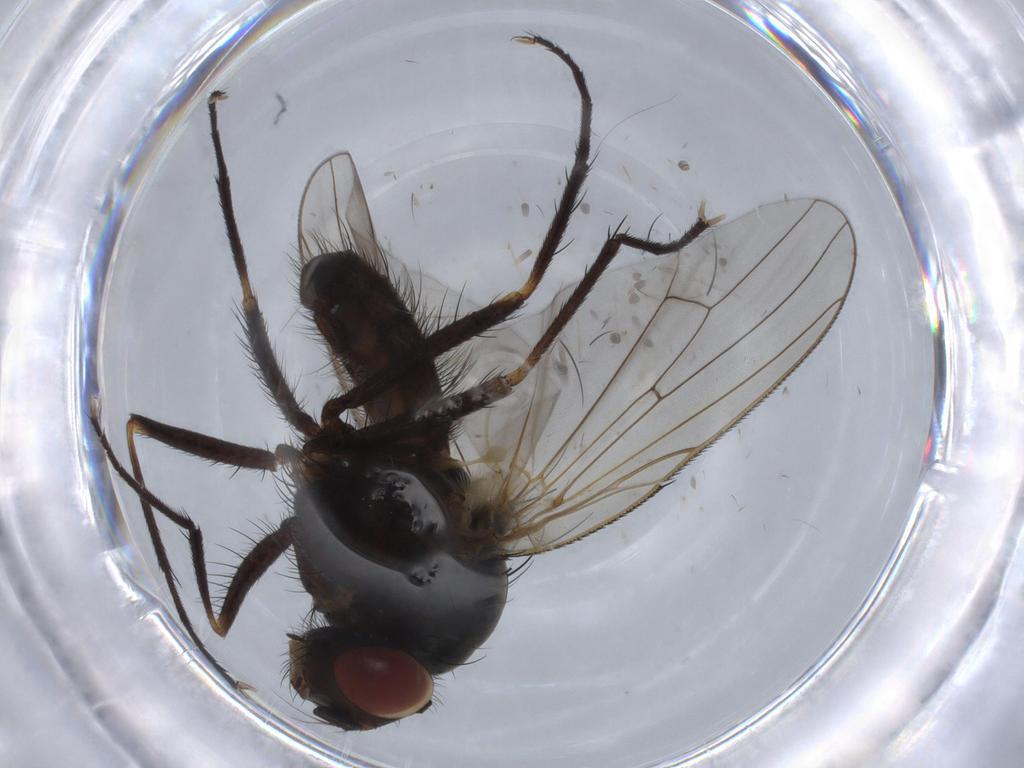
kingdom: Animalia
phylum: Arthropoda
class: Insecta
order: Diptera
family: Anthomyiidae
